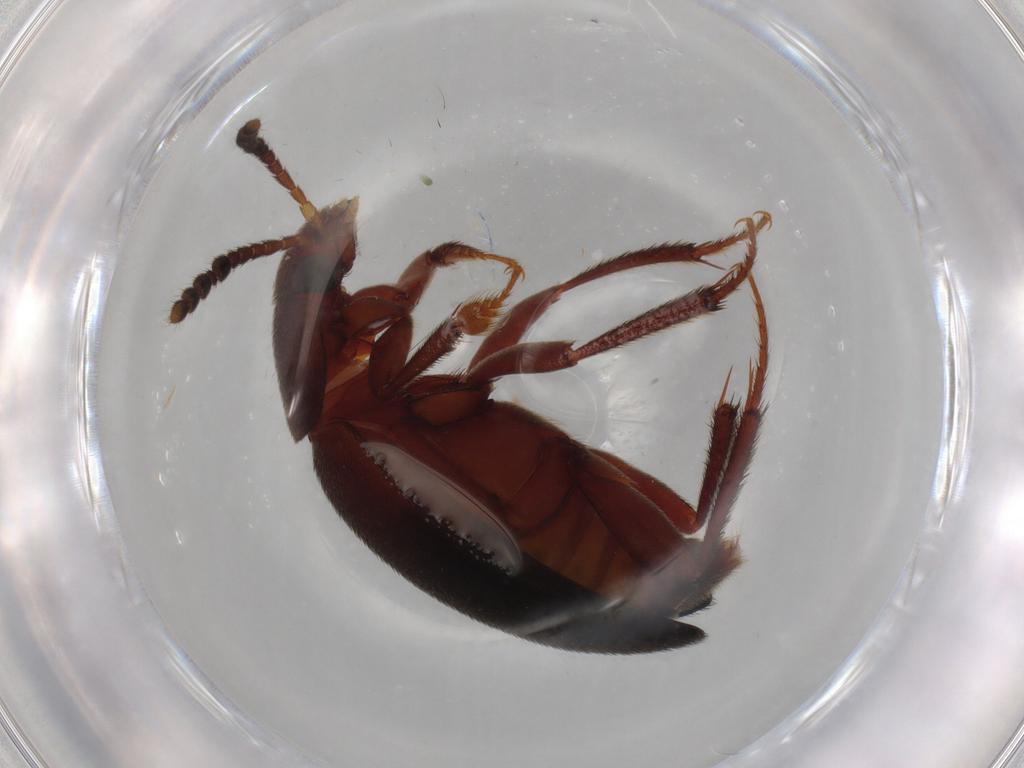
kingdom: Animalia
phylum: Arthropoda
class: Insecta
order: Coleoptera
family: Leiodidae
